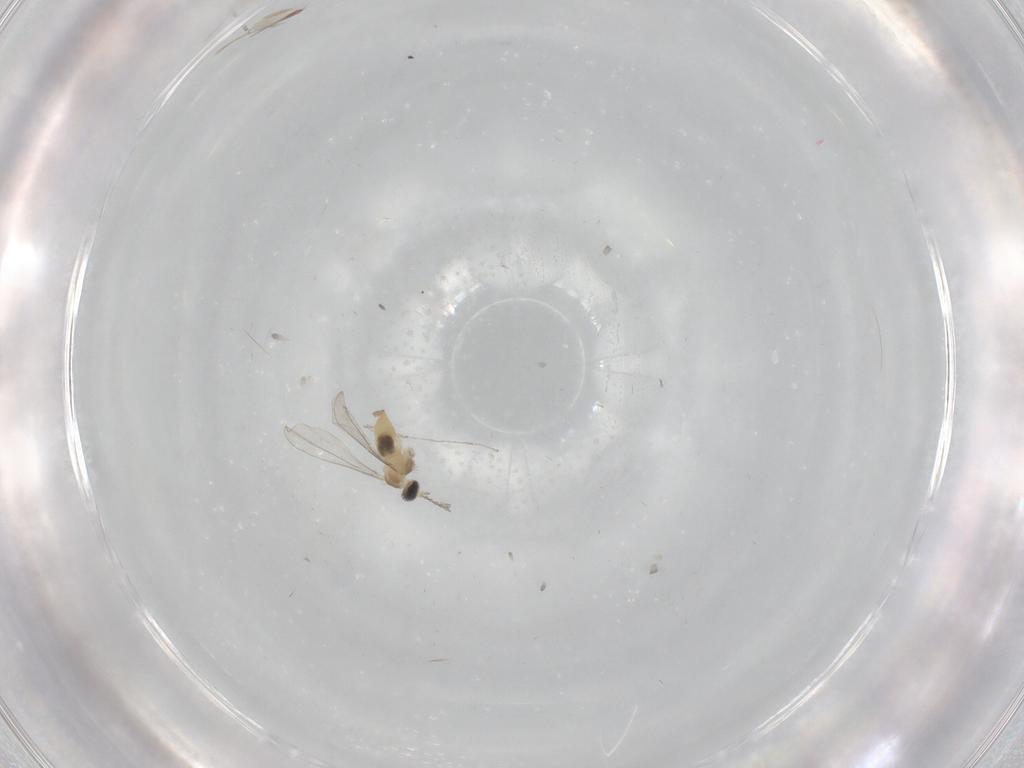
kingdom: Animalia
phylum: Arthropoda
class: Insecta
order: Diptera
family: Cecidomyiidae
